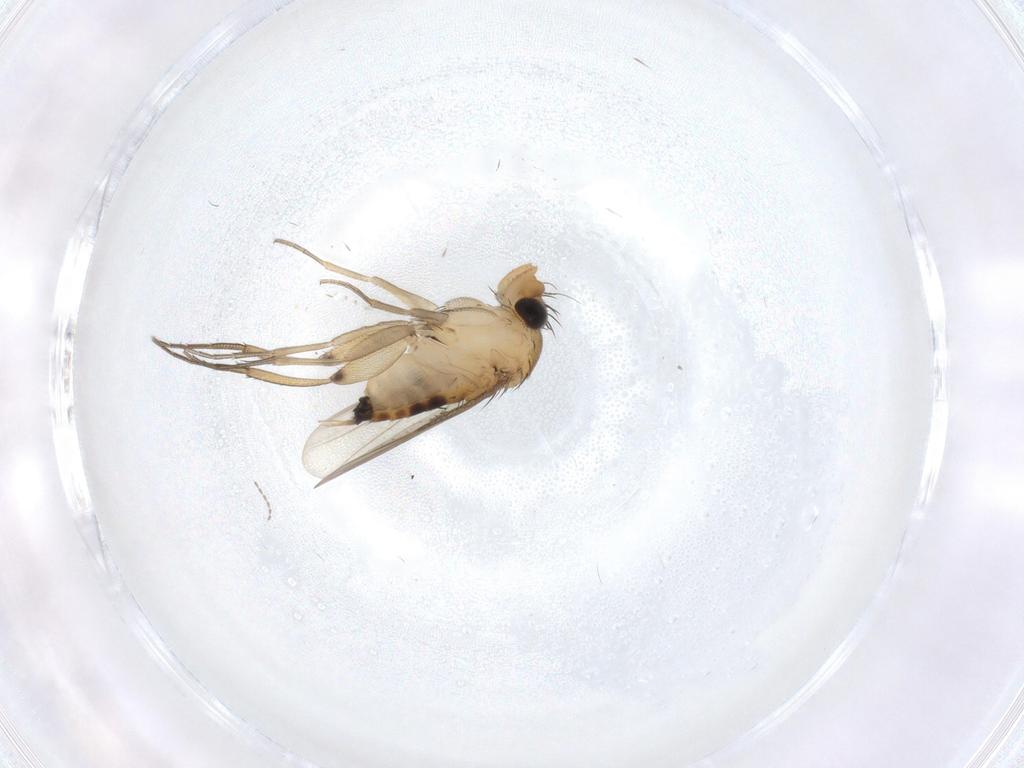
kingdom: Animalia
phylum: Arthropoda
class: Insecta
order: Diptera
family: Phoridae
